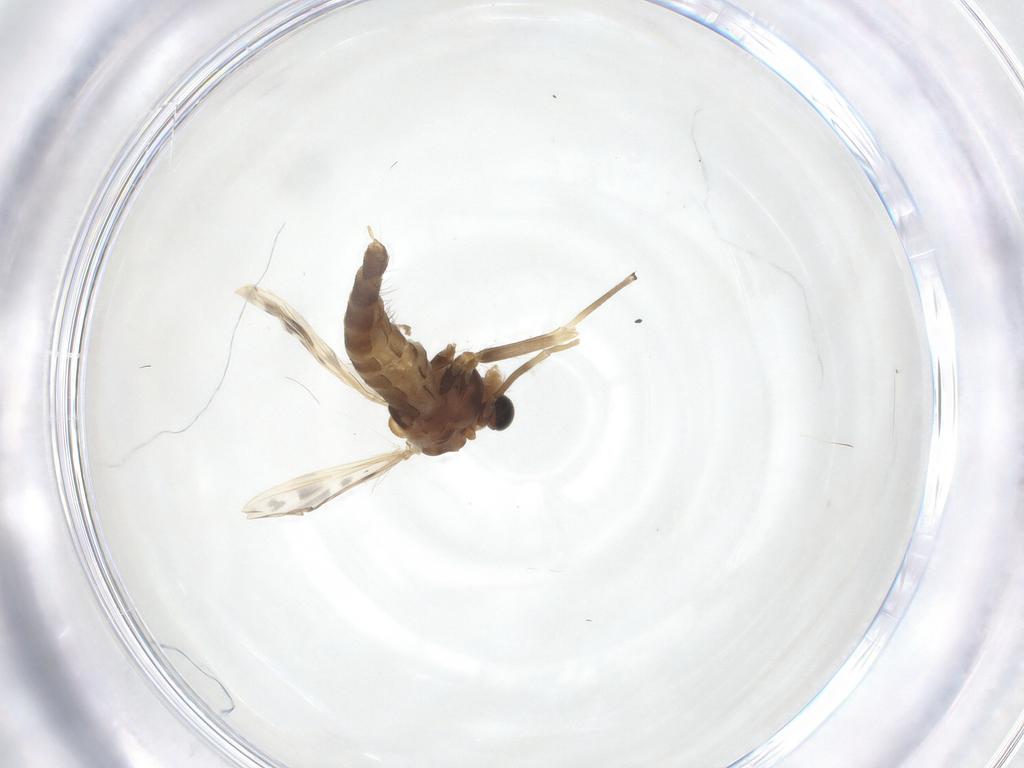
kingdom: Animalia
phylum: Arthropoda
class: Insecta
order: Diptera
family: Chironomidae
